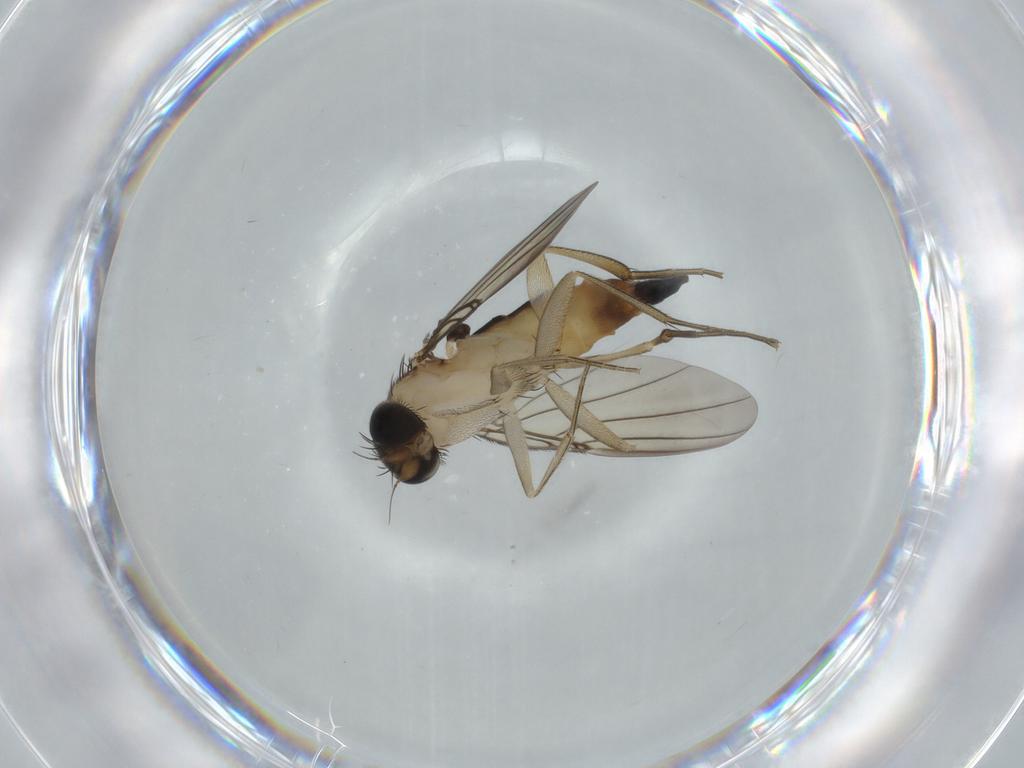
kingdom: Animalia
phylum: Arthropoda
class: Insecta
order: Diptera
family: Phoridae
